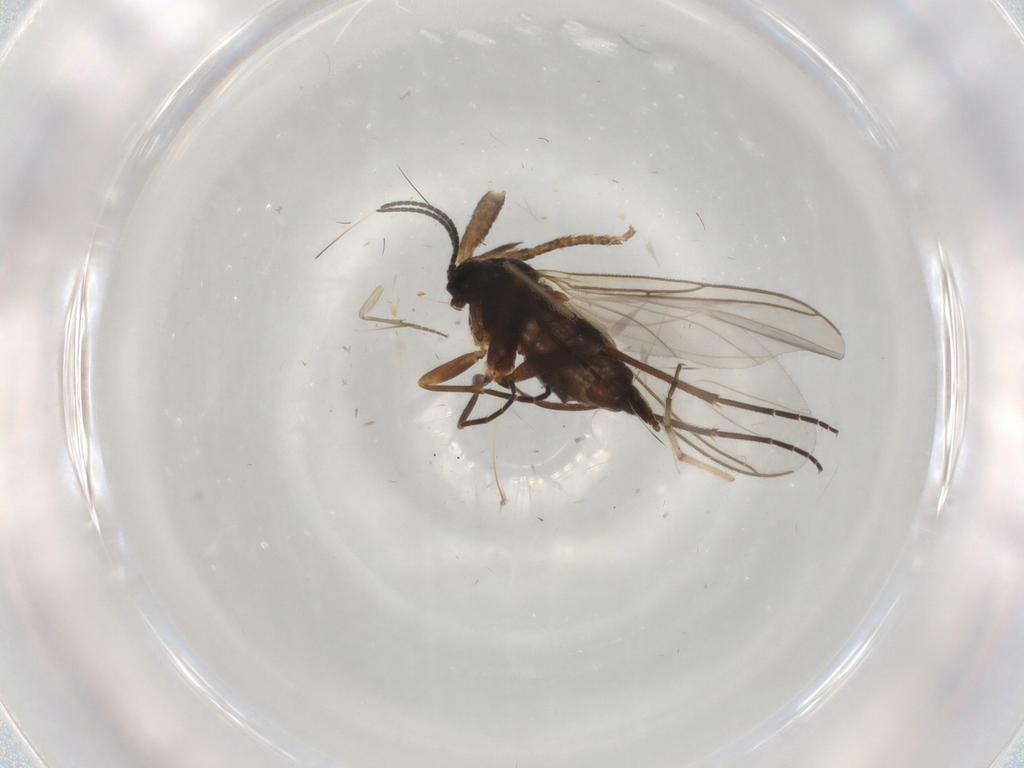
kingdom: Animalia
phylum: Arthropoda
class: Insecta
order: Diptera
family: Sciaridae
